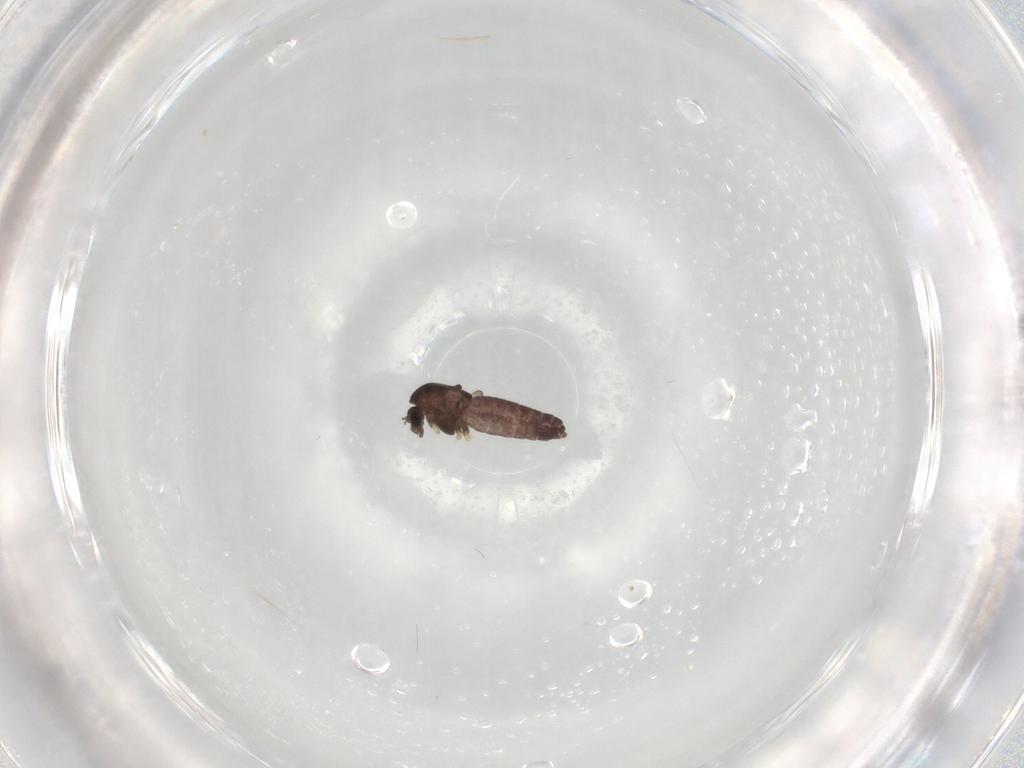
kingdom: Animalia
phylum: Arthropoda
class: Insecta
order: Diptera
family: Chironomidae
